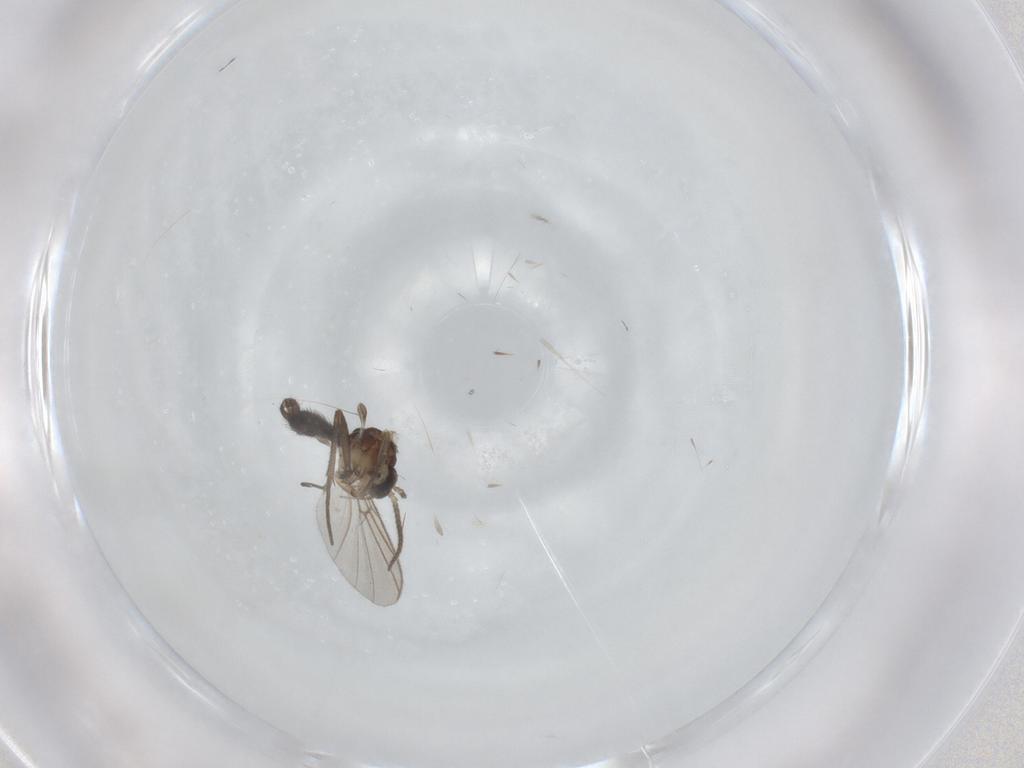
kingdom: Animalia
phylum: Arthropoda
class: Insecta
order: Diptera
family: Mycetophilidae
